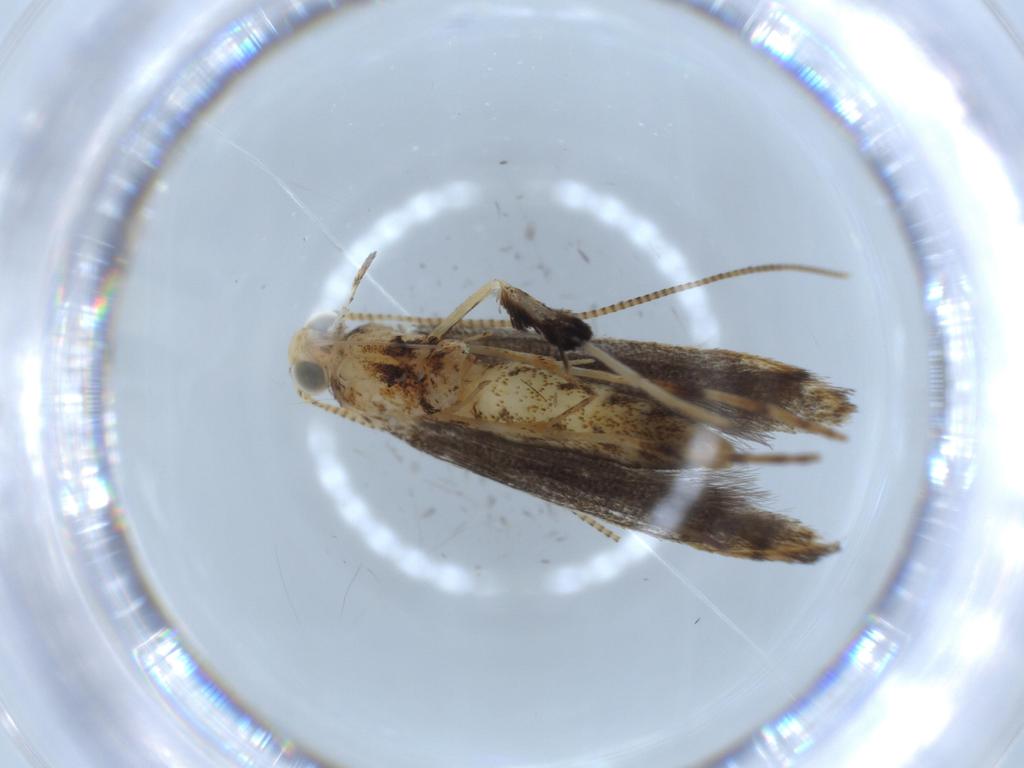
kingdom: Animalia
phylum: Arthropoda
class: Insecta
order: Lepidoptera
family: Gracillariidae
